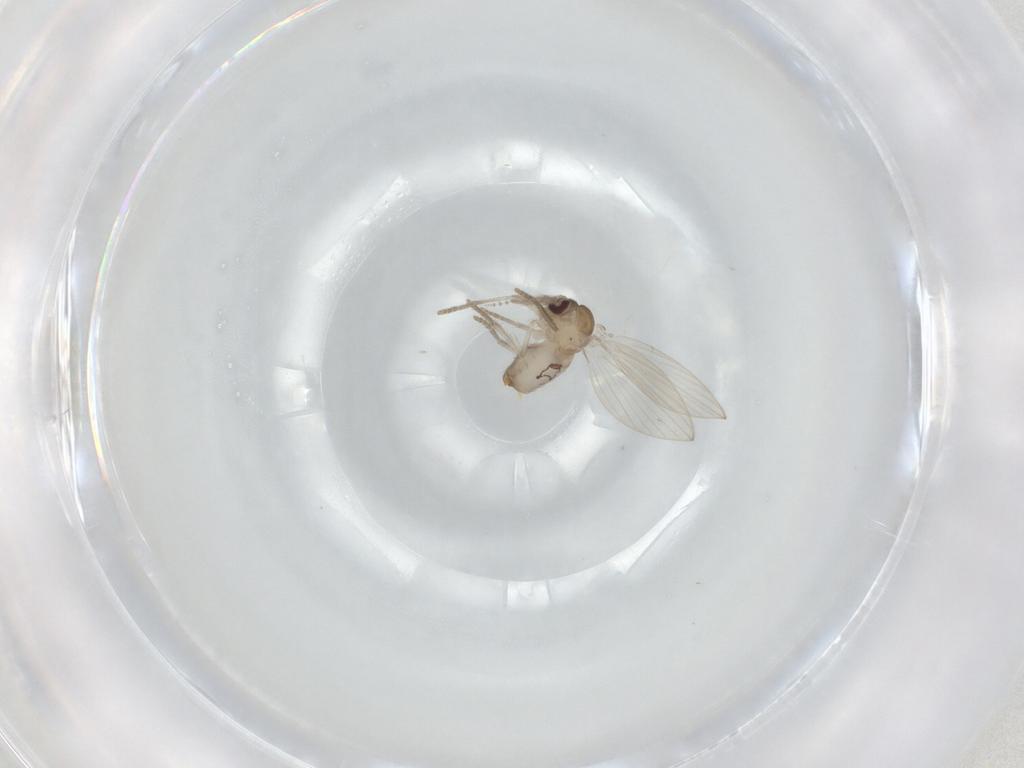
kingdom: Animalia
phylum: Arthropoda
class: Insecta
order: Diptera
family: Psychodidae
